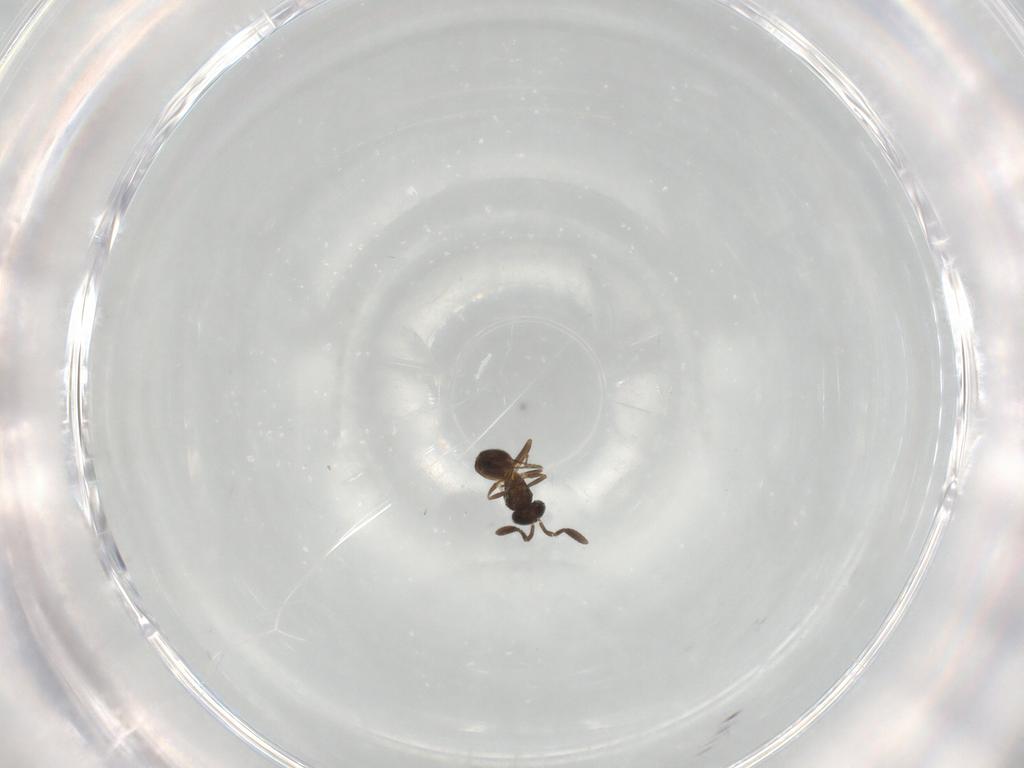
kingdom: Animalia
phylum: Arthropoda
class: Insecta
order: Hymenoptera
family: Scelionidae
